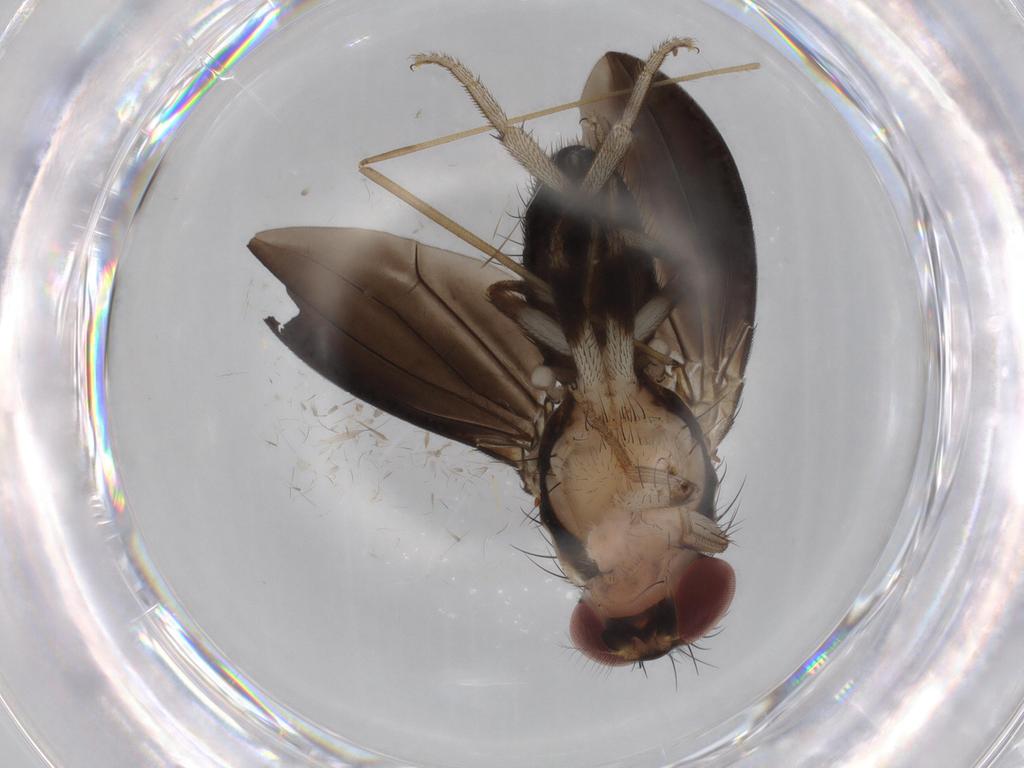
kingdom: Animalia
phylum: Arthropoda
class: Insecta
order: Diptera
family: Drosophilidae
